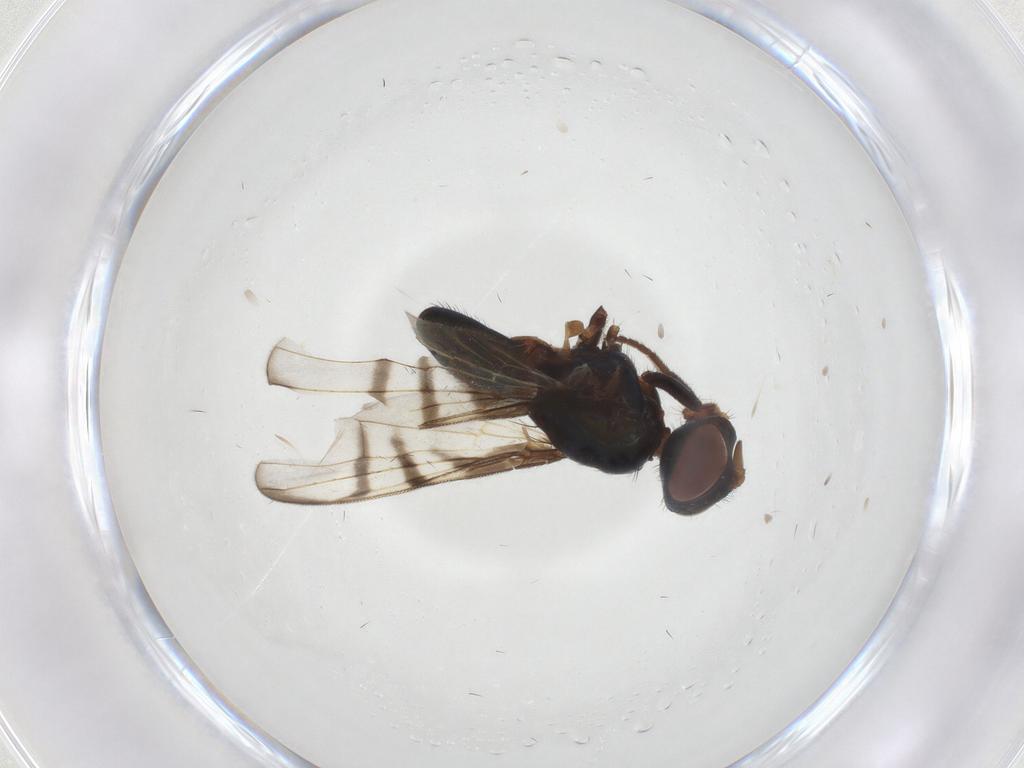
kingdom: Animalia
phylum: Arthropoda
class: Insecta
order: Diptera
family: Platystomatidae
